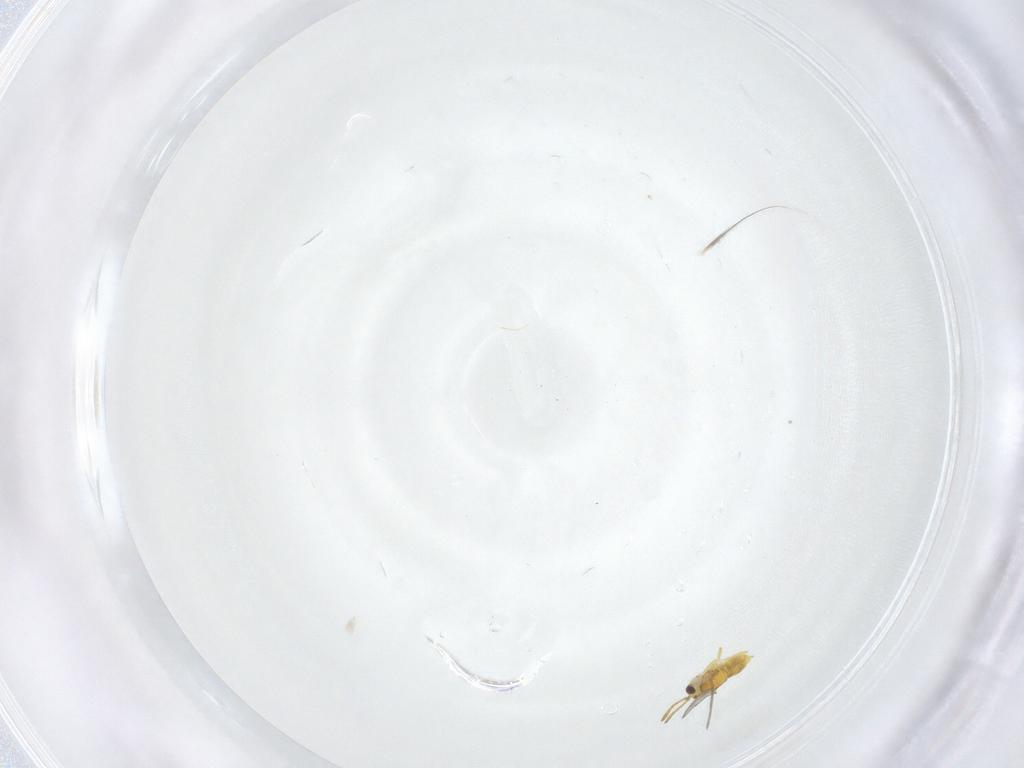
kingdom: Animalia
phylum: Arthropoda
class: Insecta
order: Hymenoptera
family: Aphelinidae
